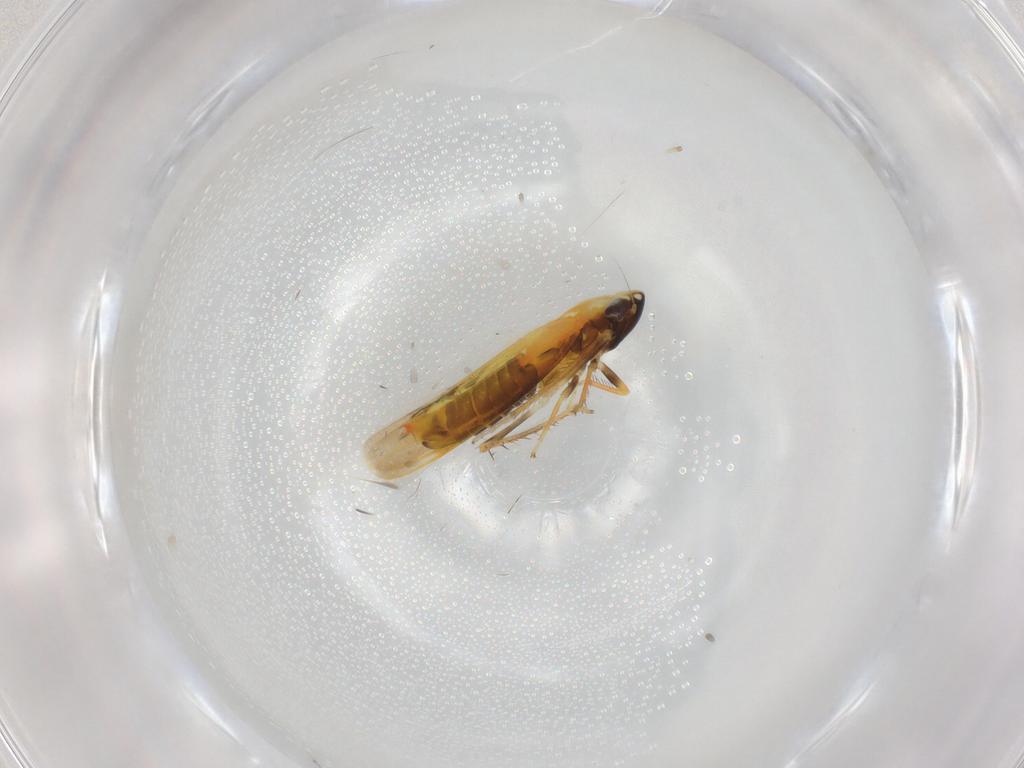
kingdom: Animalia
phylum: Arthropoda
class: Insecta
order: Hemiptera
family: Cicadellidae
